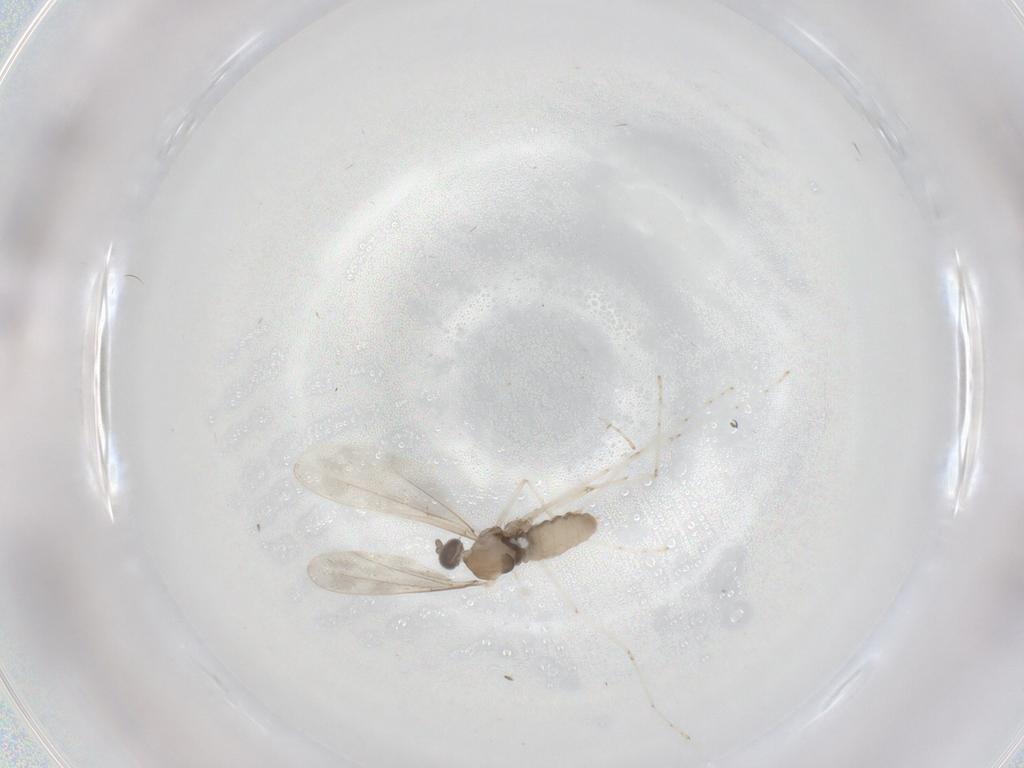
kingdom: Animalia
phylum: Arthropoda
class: Insecta
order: Diptera
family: Cecidomyiidae
